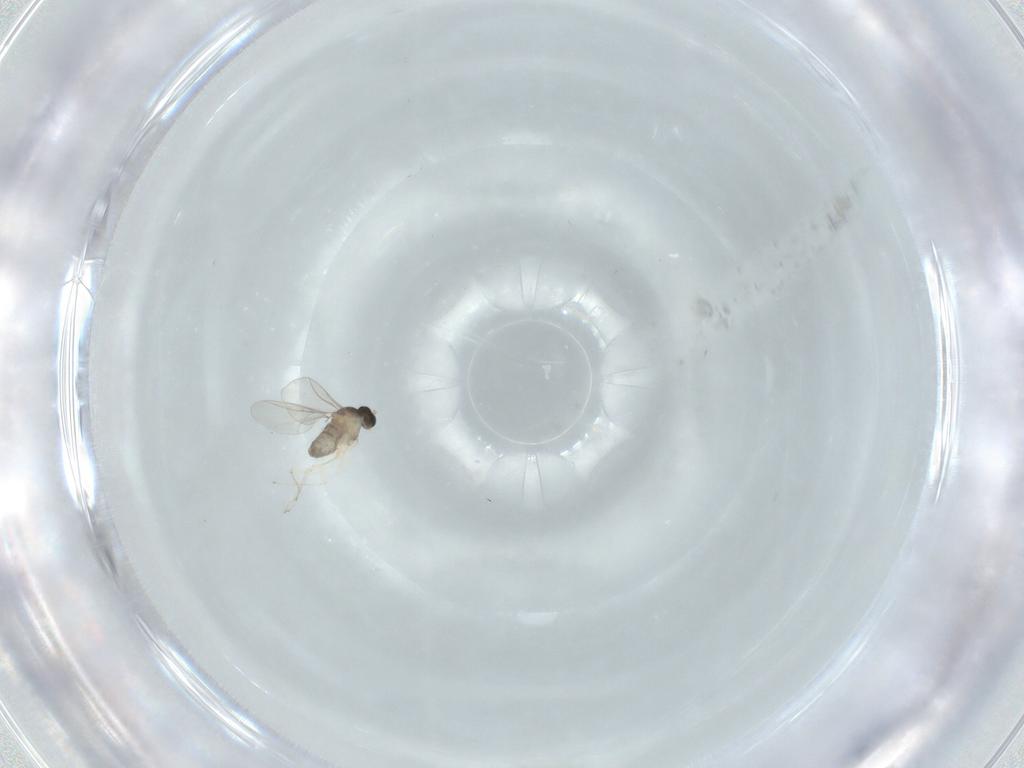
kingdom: Animalia
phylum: Arthropoda
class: Insecta
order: Diptera
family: Cecidomyiidae
